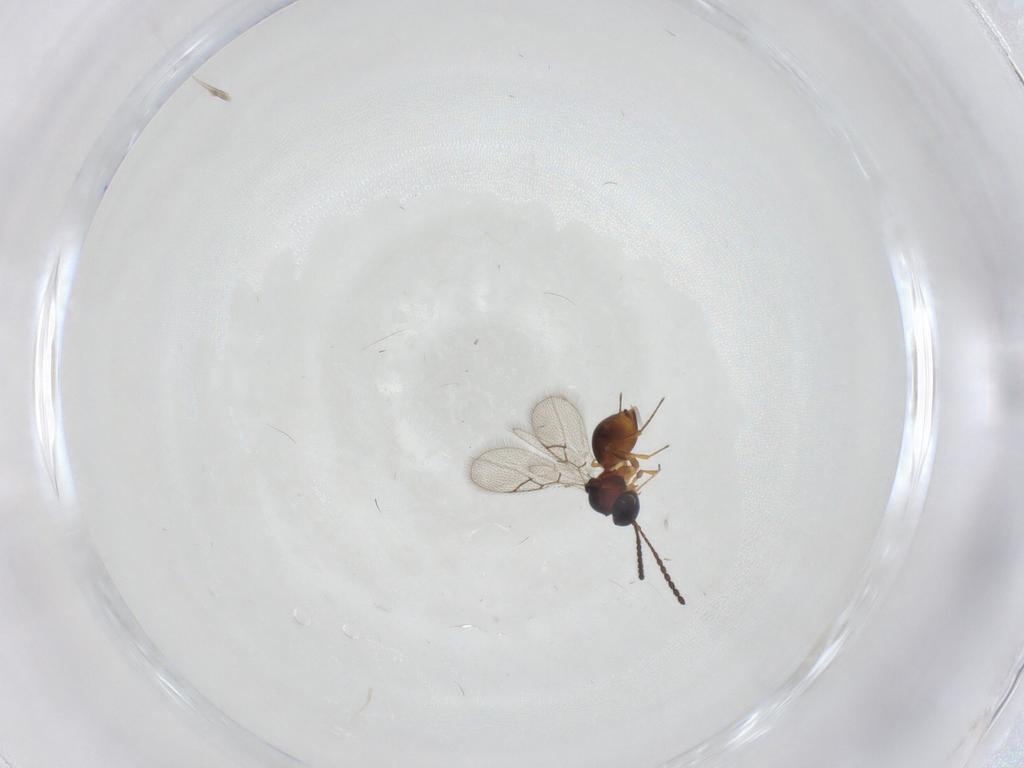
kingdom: Animalia
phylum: Arthropoda
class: Insecta
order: Hymenoptera
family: Figitidae
